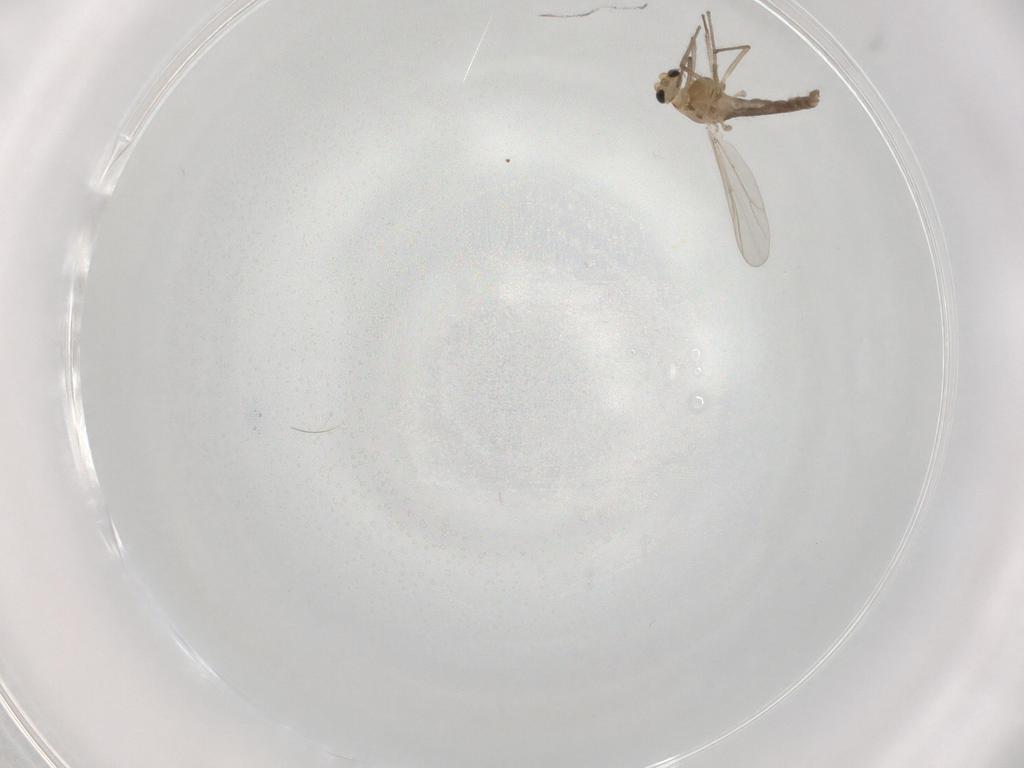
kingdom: Animalia
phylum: Arthropoda
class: Insecta
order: Diptera
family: Chironomidae
